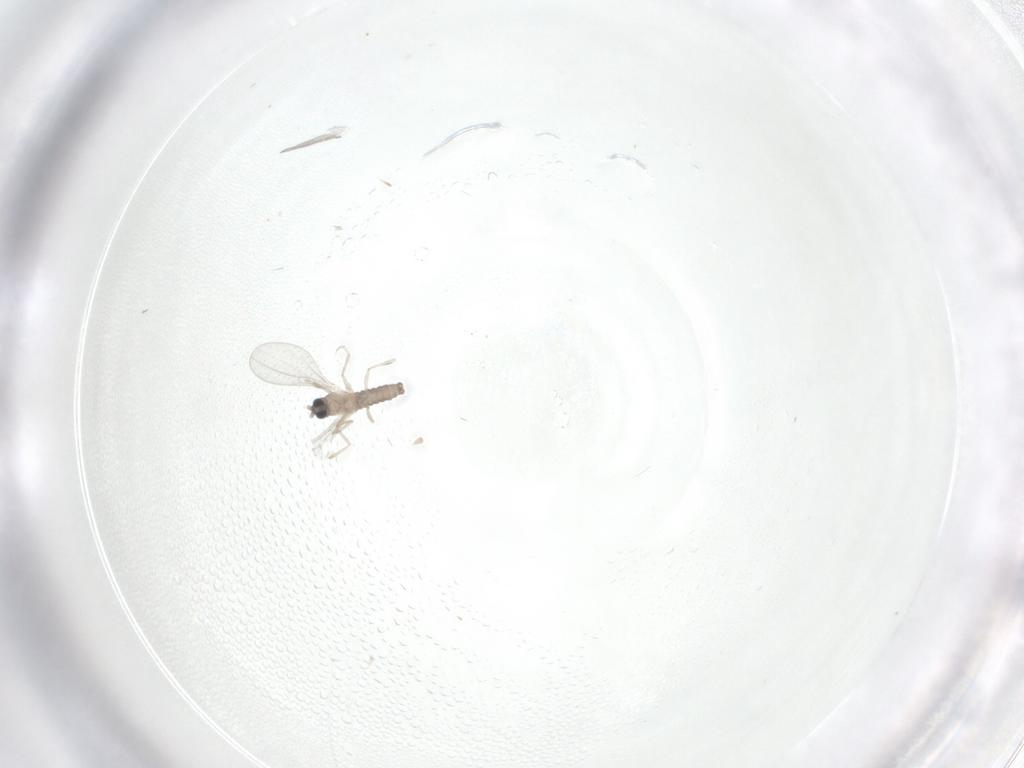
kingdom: Animalia
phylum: Arthropoda
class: Insecta
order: Diptera
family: Cecidomyiidae
